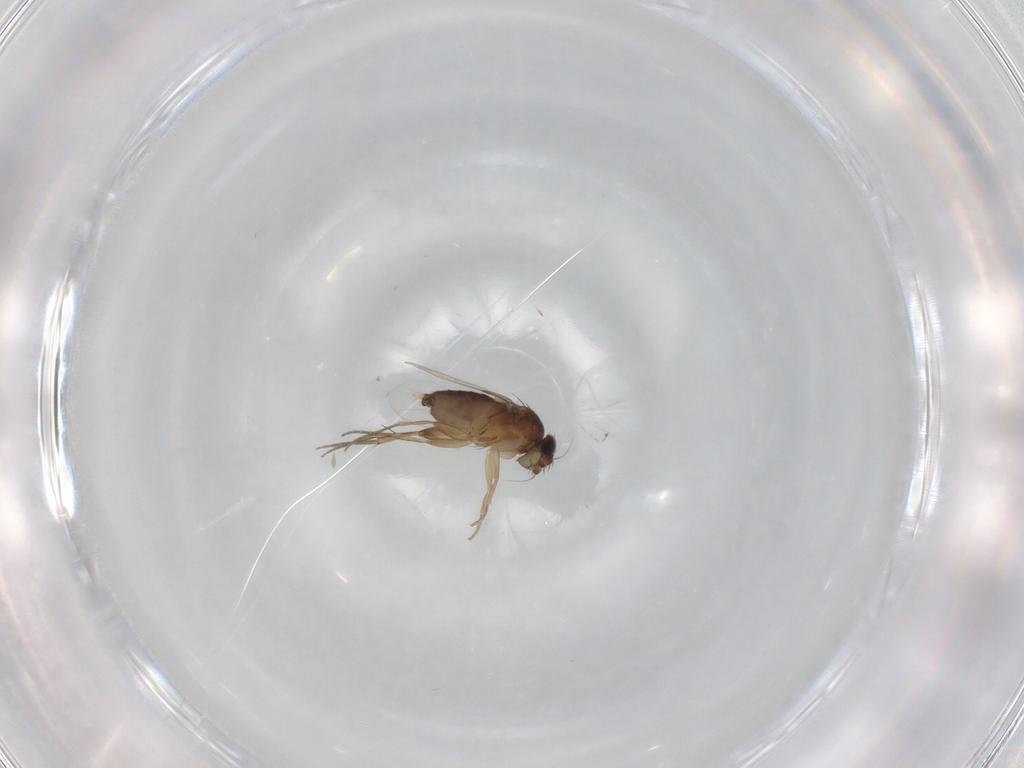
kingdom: Animalia
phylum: Arthropoda
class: Insecta
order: Diptera
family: Phoridae
